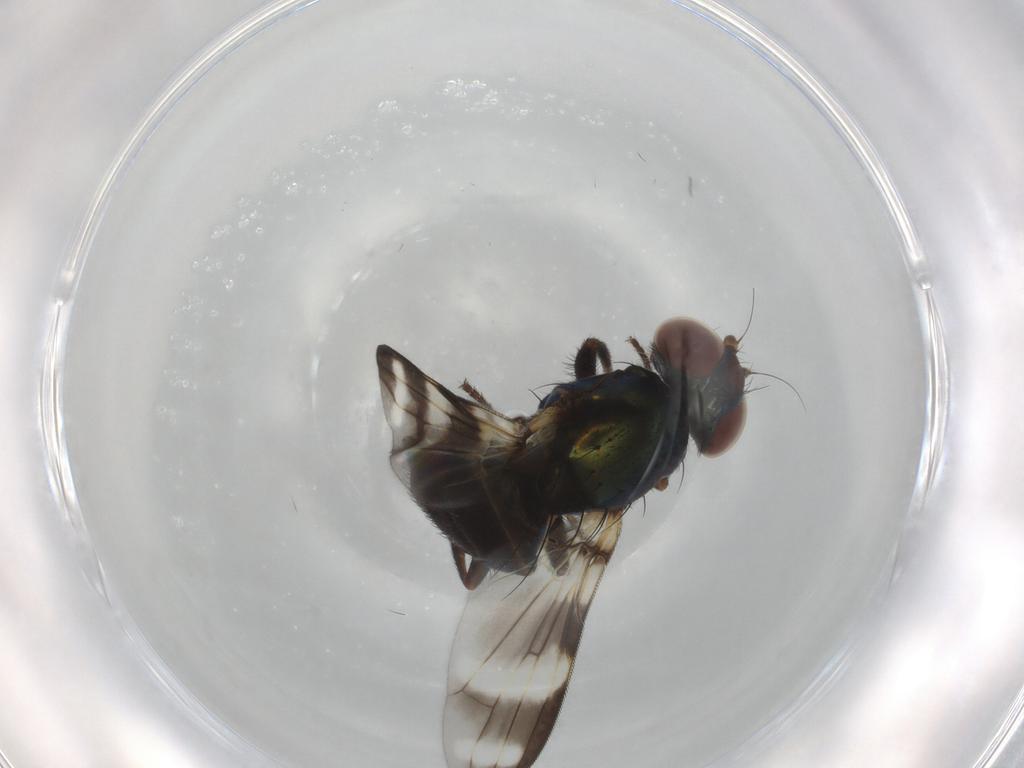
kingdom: Animalia
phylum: Arthropoda
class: Insecta
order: Diptera
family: Ulidiidae
